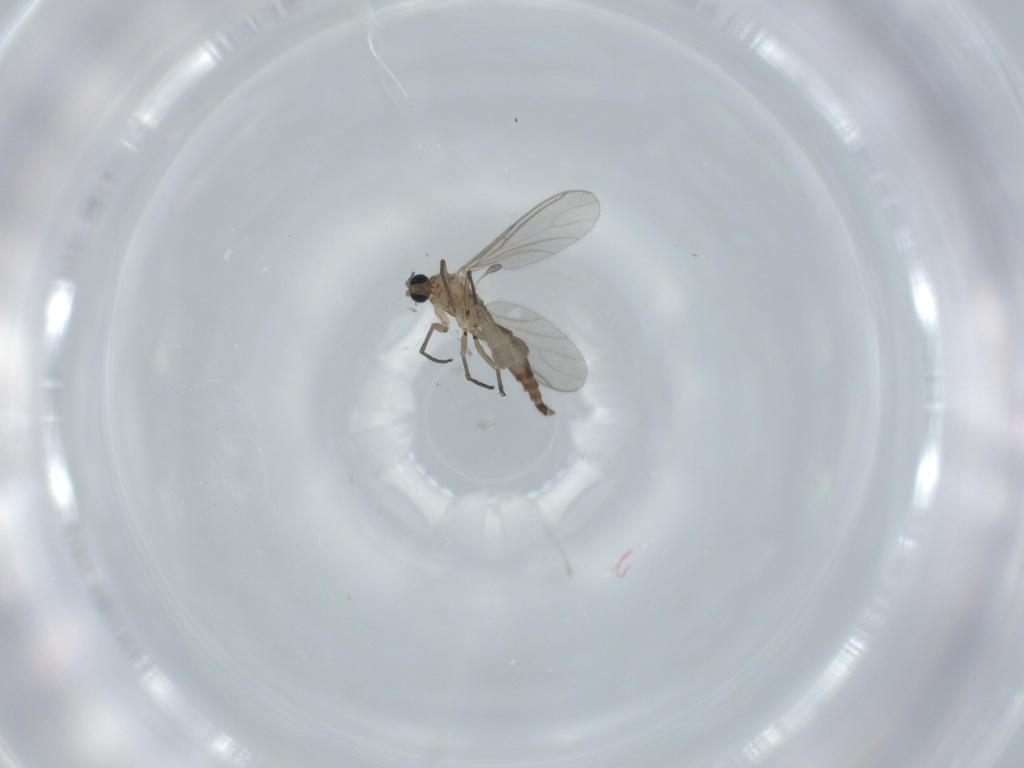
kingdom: Animalia
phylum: Arthropoda
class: Insecta
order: Diptera
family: Sciaridae
